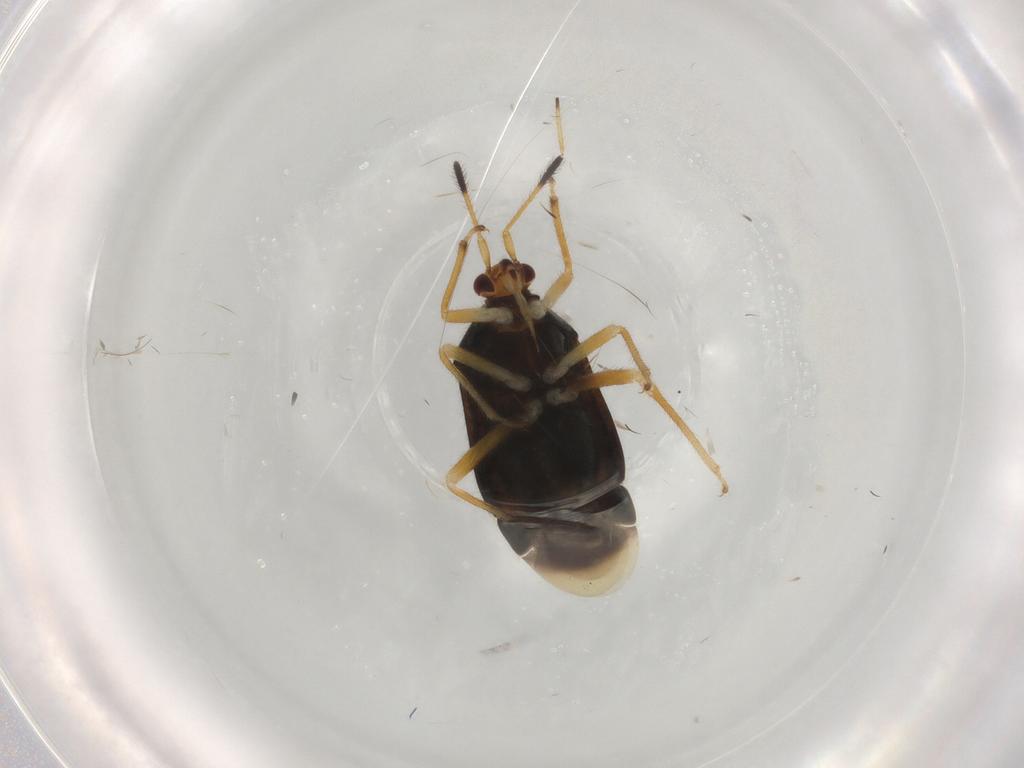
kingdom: Animalia
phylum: Arthropoda
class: Insecta
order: Hemiptera
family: Miridae
